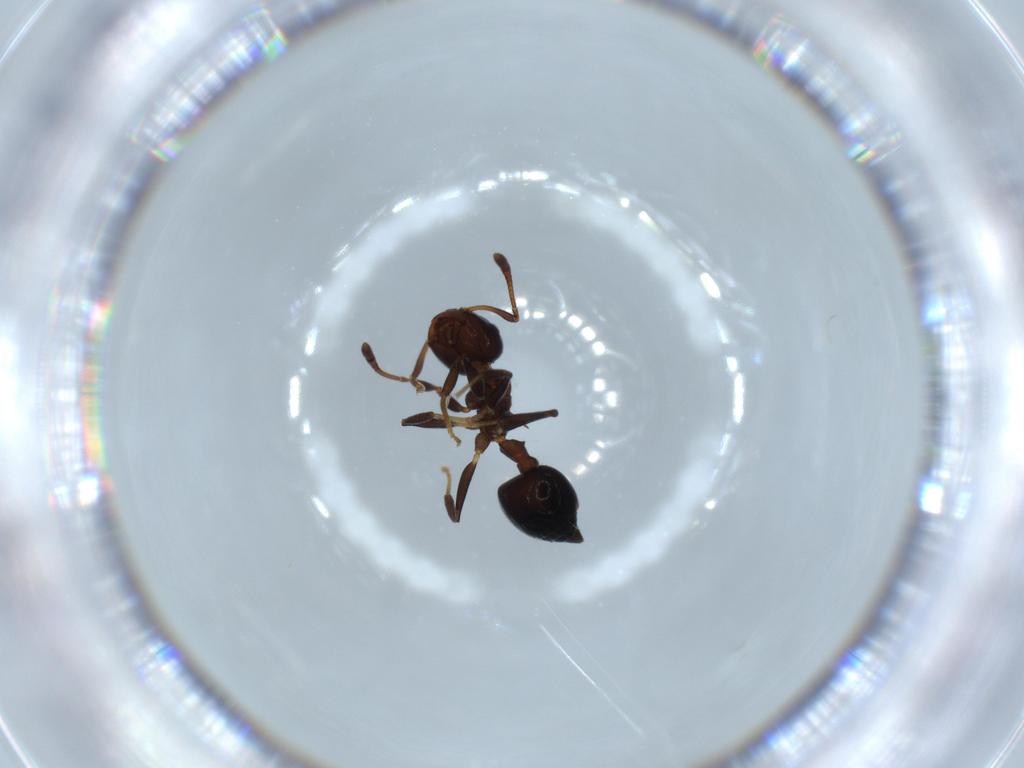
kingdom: Animalia
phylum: Arthropoda
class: Insecta
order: Hymenoptera
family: Formicidae
